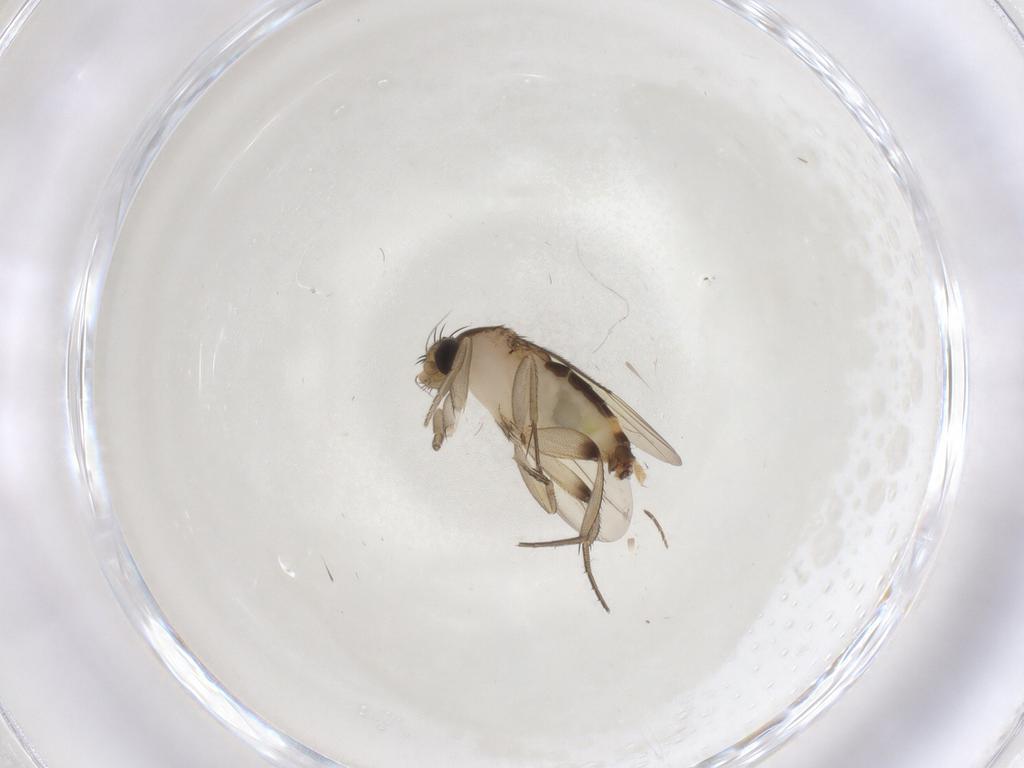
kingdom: Animalia
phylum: Arthropoda
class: Insecta
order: Diptera
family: Phoridae
